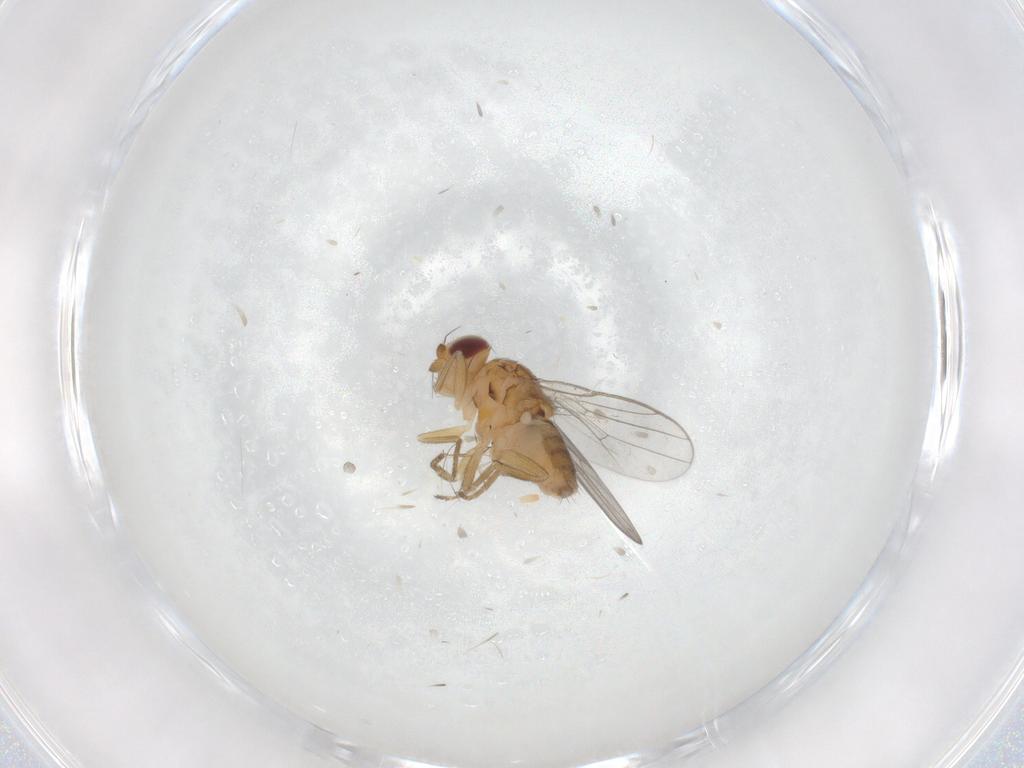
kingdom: Animalia
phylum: Arthropoda
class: Insecta
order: Diptera
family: Chloropidae
